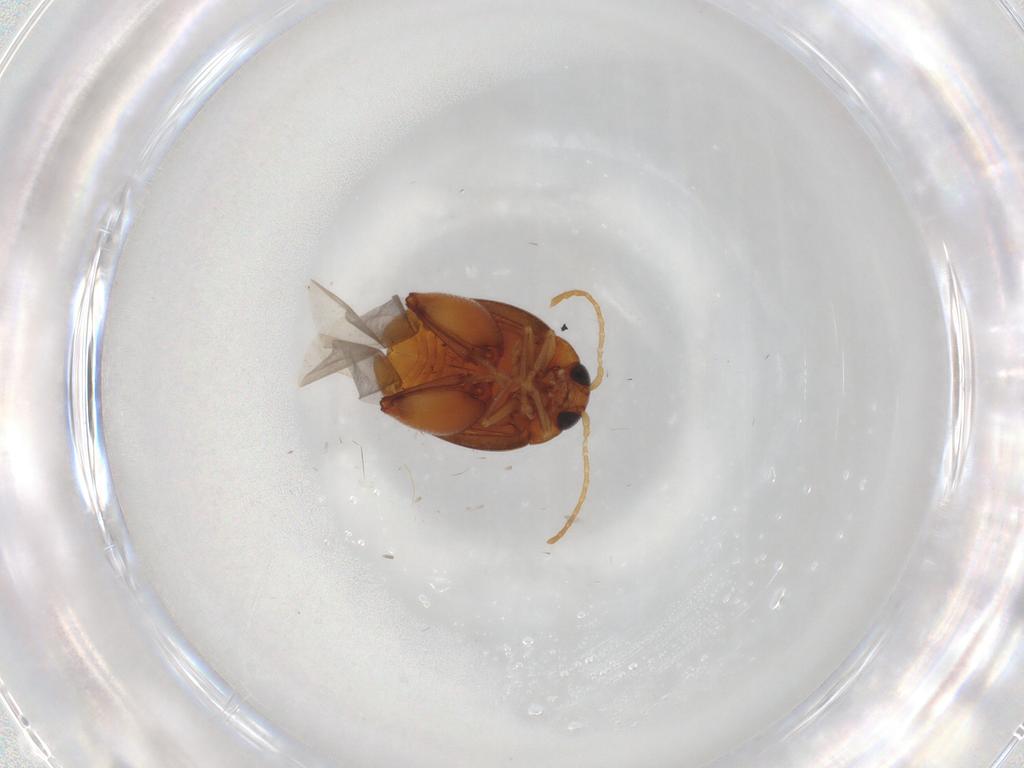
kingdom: Animalia
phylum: Arthropoda
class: Insecta
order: Coleoptera
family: Chrysomelidae
